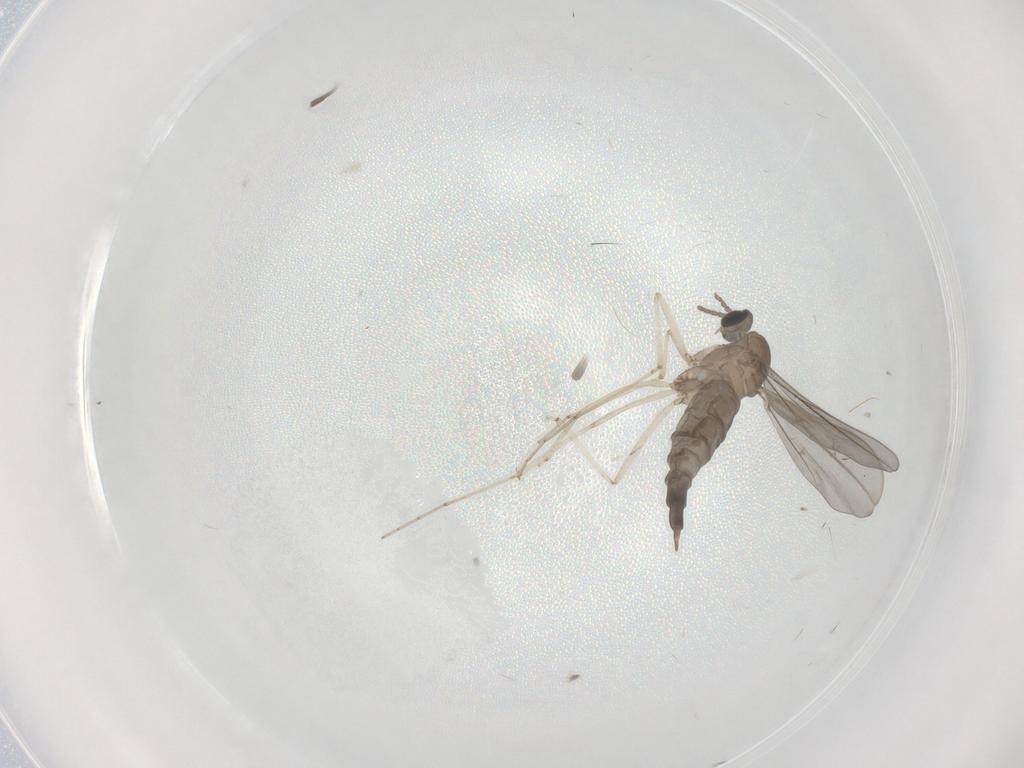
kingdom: Animalia
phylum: Arthropoda
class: Insecta
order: Diptera
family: Cecidomyiidae
